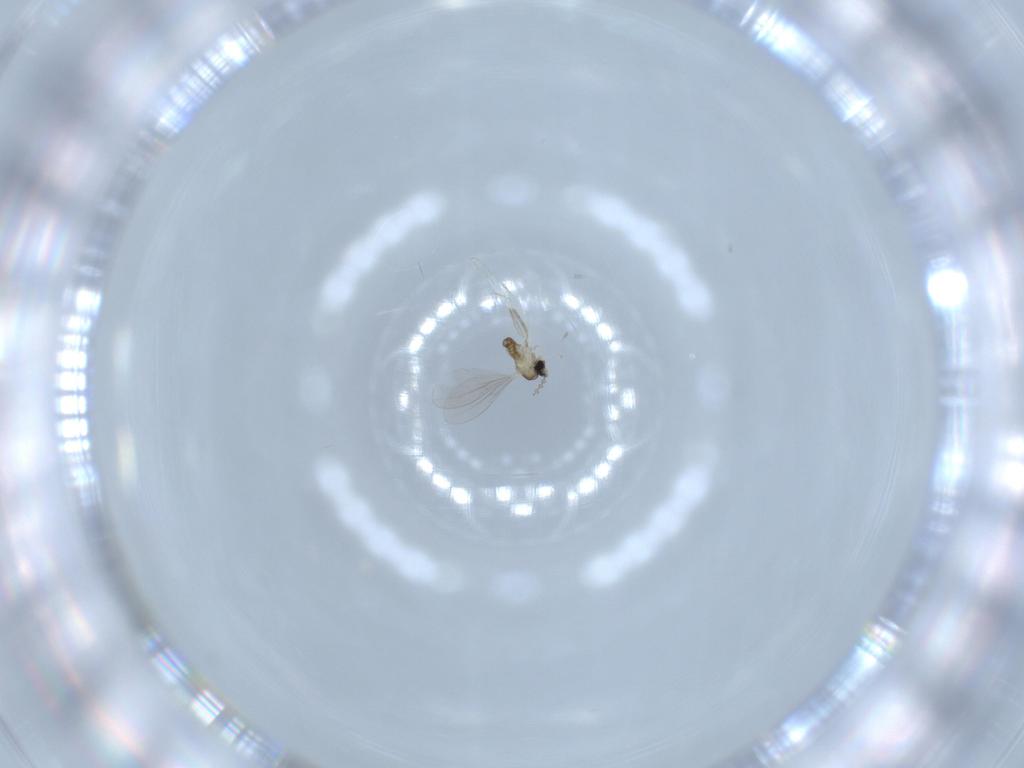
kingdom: Animalia
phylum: Arthropoda
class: Insecta
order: Diptera
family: Cecidomyiidae
